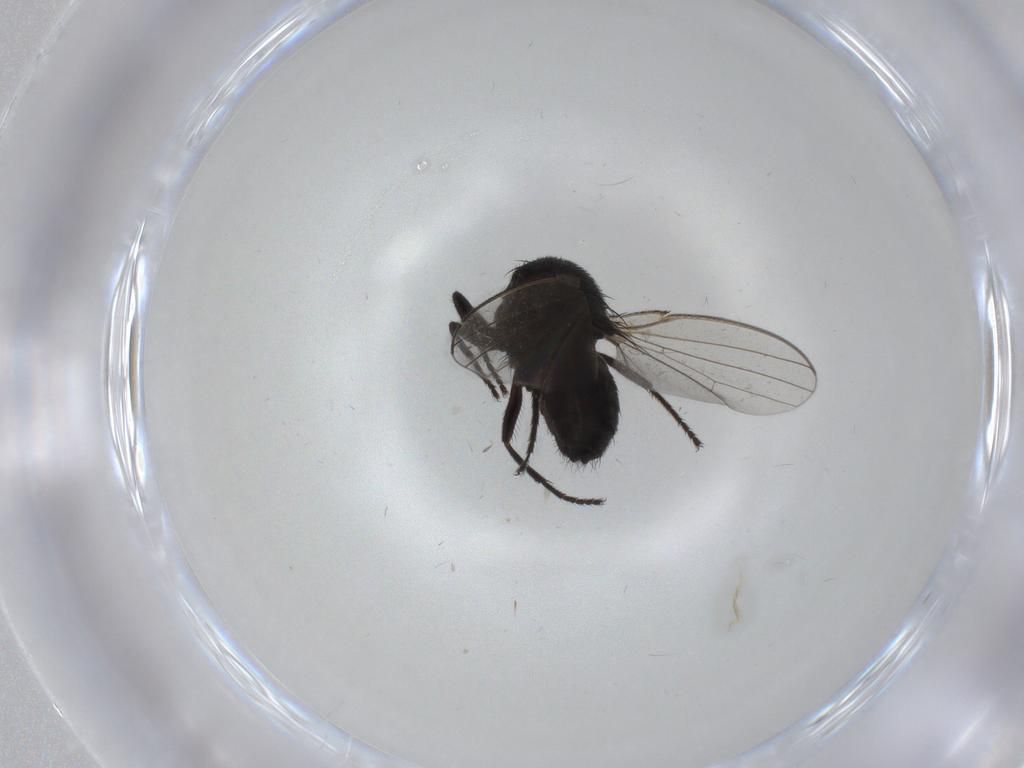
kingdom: Animalia
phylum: Arthropoda
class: Insecta
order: Diptera
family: Milichiidae
